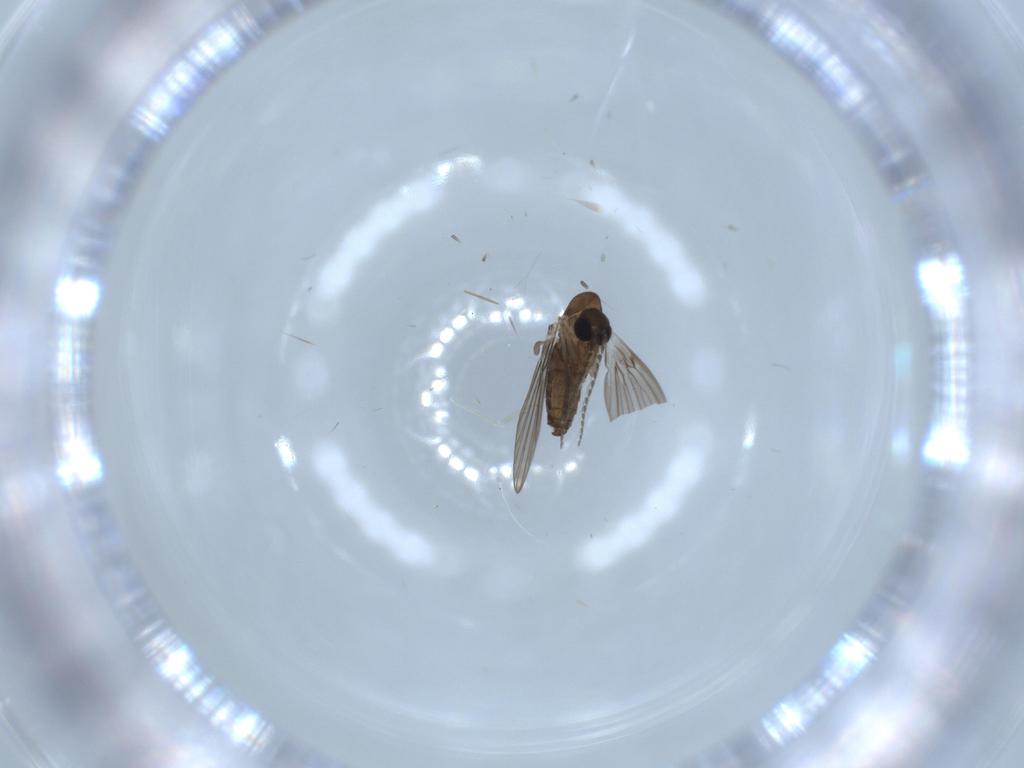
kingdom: Animalia
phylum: Arthropoda
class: Insecta
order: Diptera
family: Psychodidae
